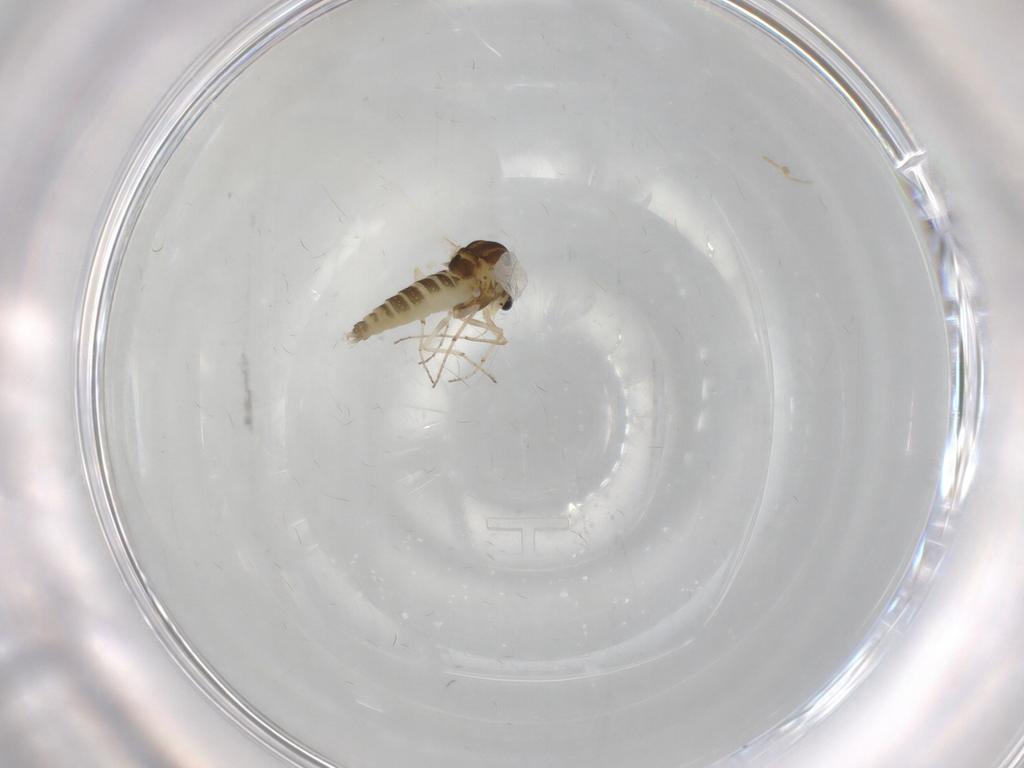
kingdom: Animalia
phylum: Arthropoda
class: Insecta
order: Diptera
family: Chironomidae
